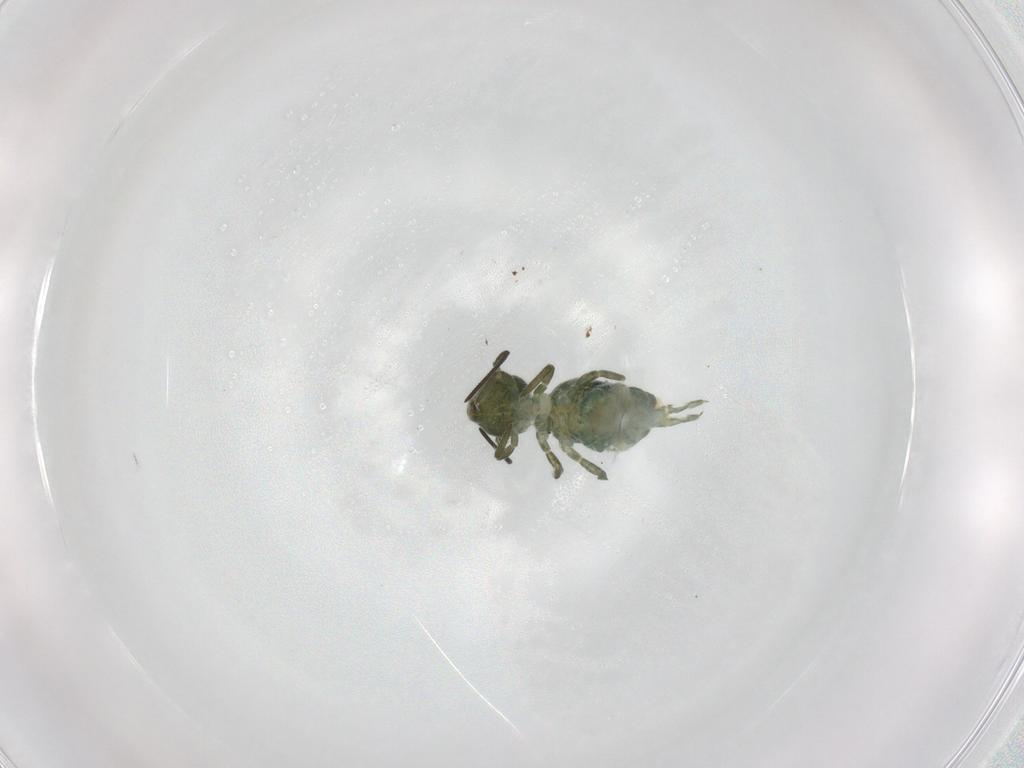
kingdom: Animalia
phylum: Arthropoda
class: Collembola
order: Symphypleona
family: Sminthuridae
